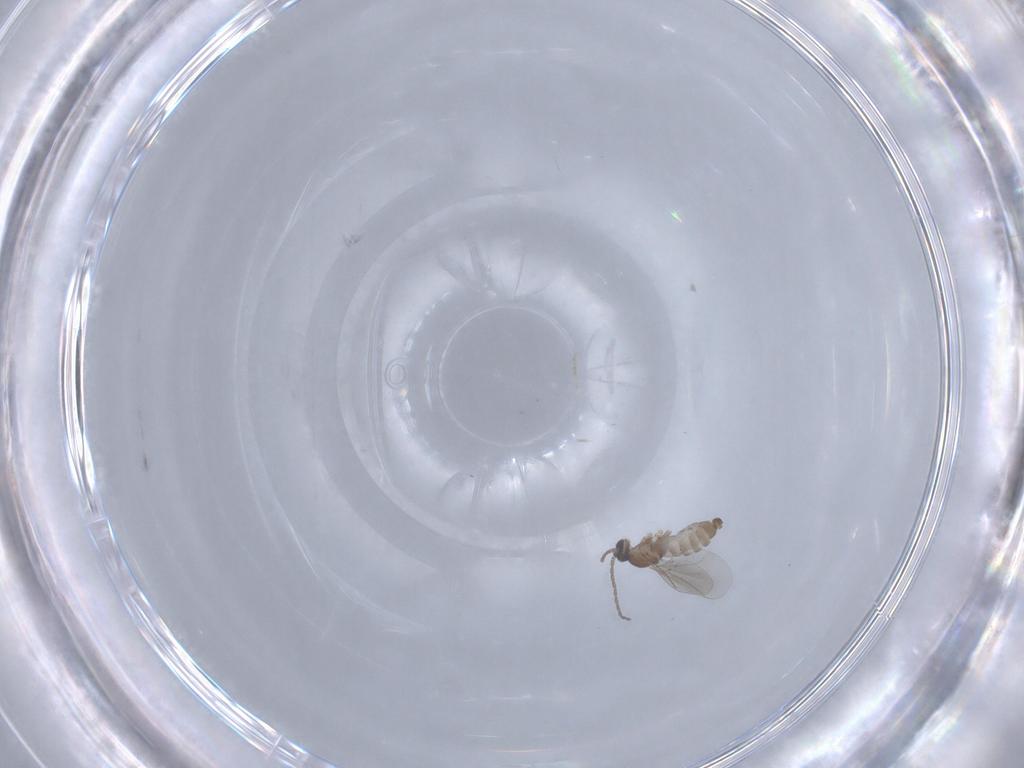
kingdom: Animalia
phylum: Arthropoda
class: Insecta
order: Diptera
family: Cecidomyiidae
